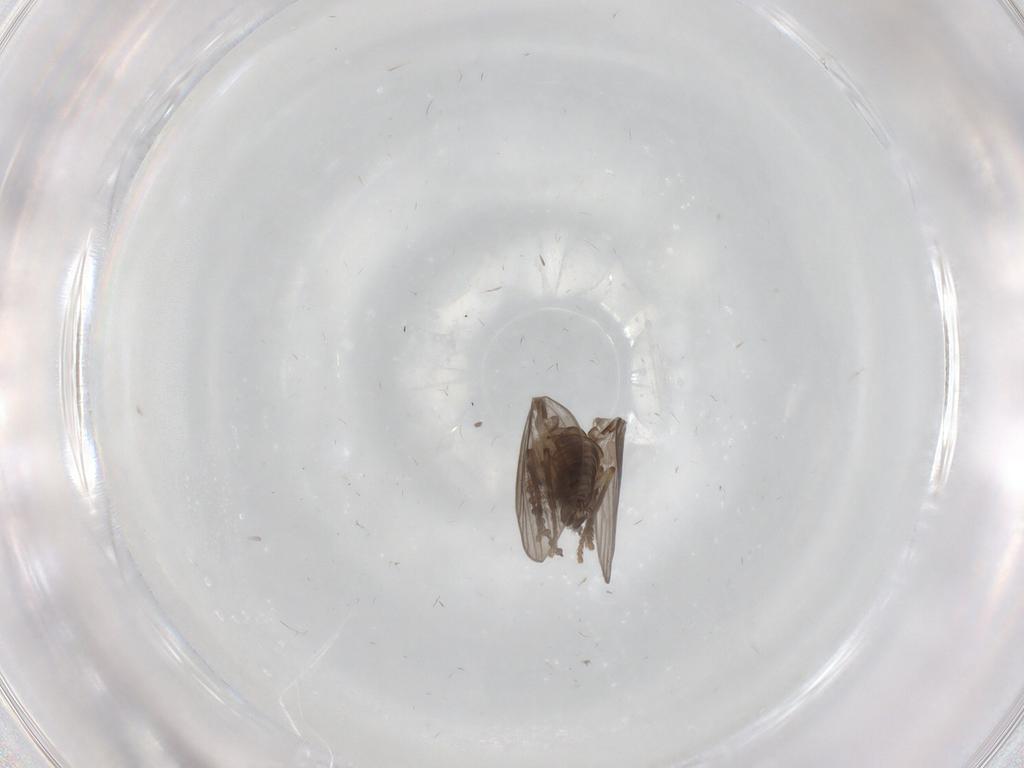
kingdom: Animalia
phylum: Arthropoda
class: Insecta
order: Diptera
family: Psychodidae
